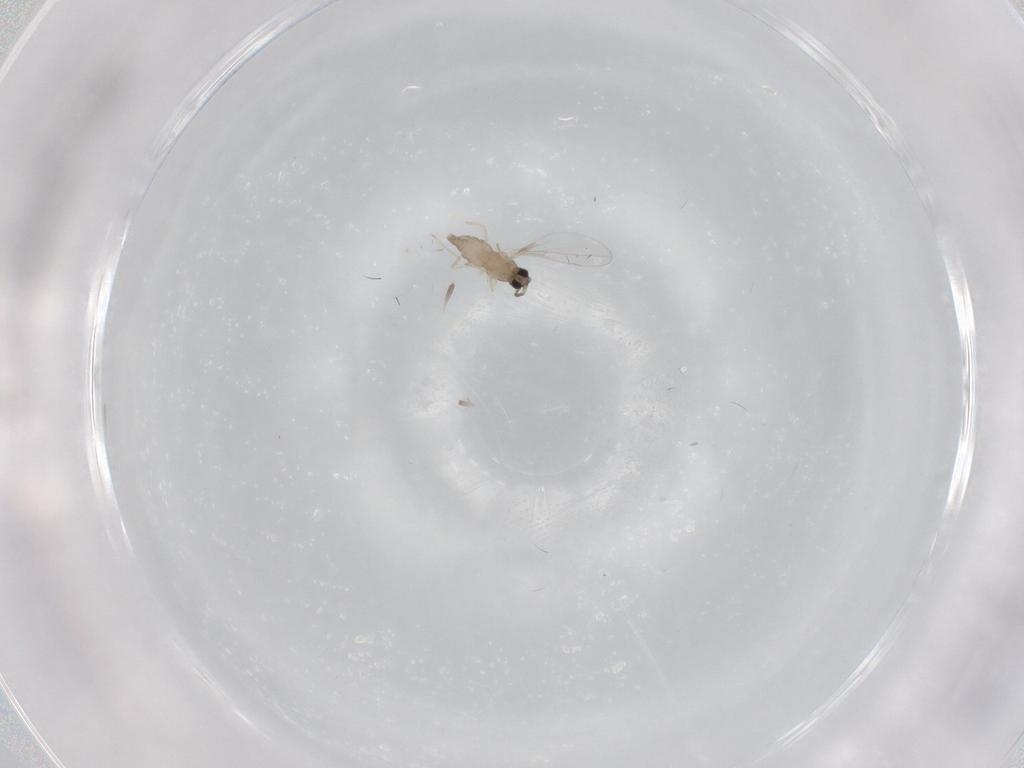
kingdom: Animalia
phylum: Arthropoda
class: Insecta
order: Diptera
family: Cecidomyiidae
